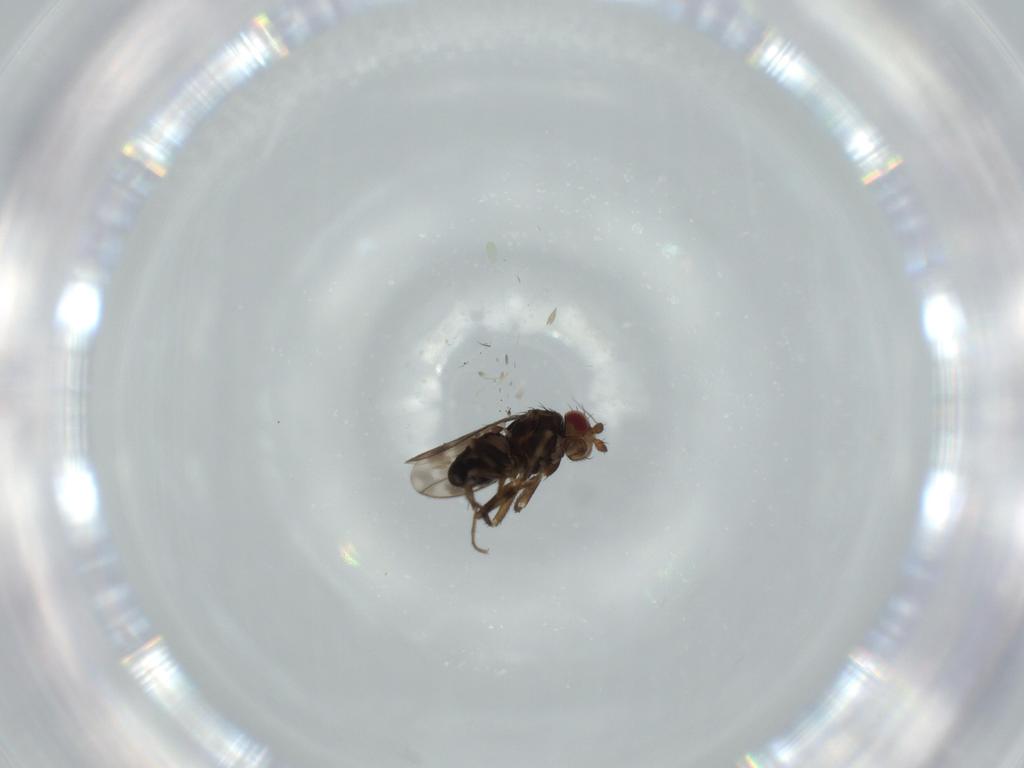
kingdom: Animalia
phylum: Arthropoda
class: Insecta
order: Diptera
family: Sphaeroceridae
